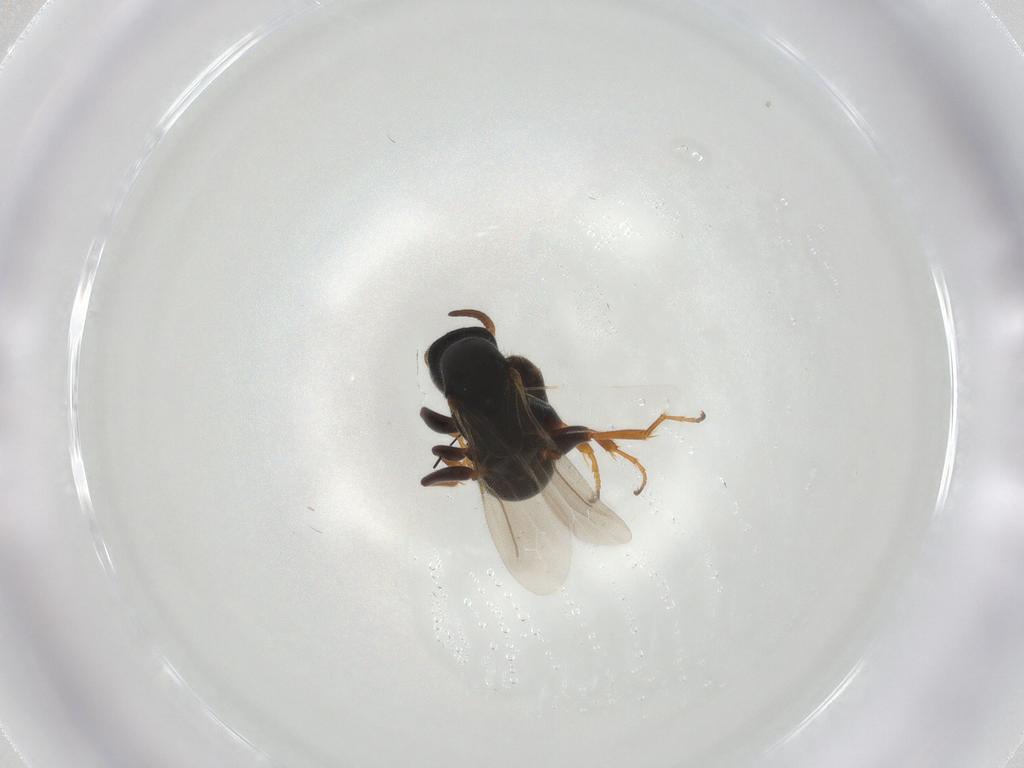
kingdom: Animalia
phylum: Arthropoda
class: Insecta
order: Hymenoptera
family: Bethylidae
